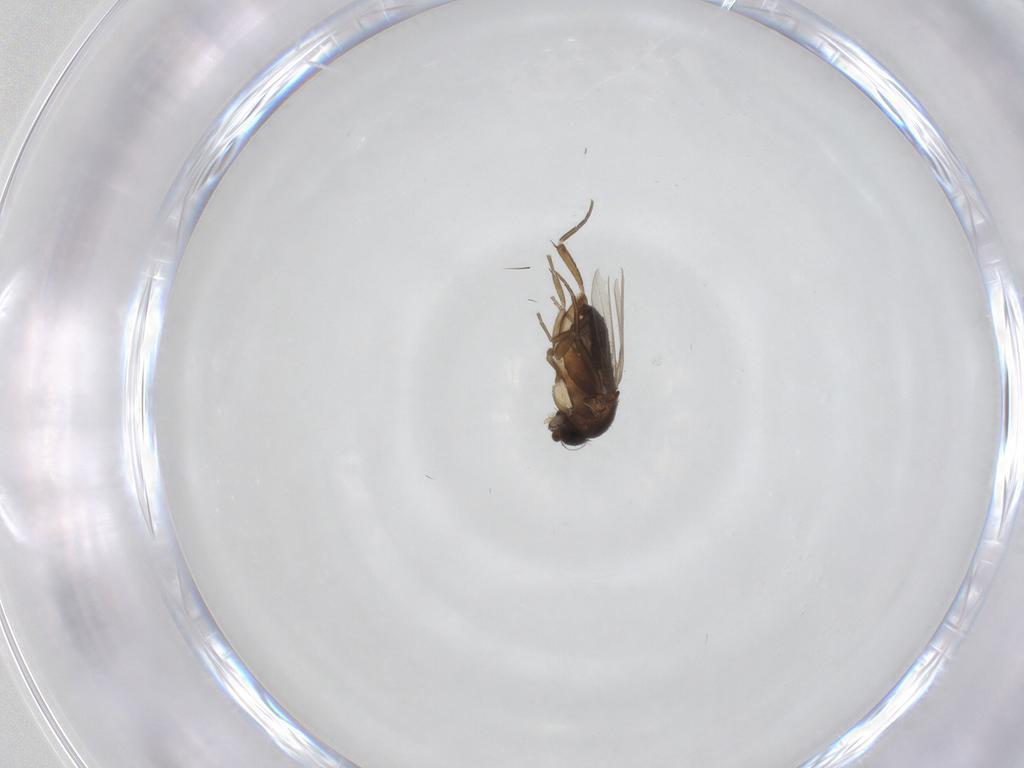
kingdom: Animalia
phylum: Arthropoda
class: Insecta
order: Diptera
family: Phoridae
